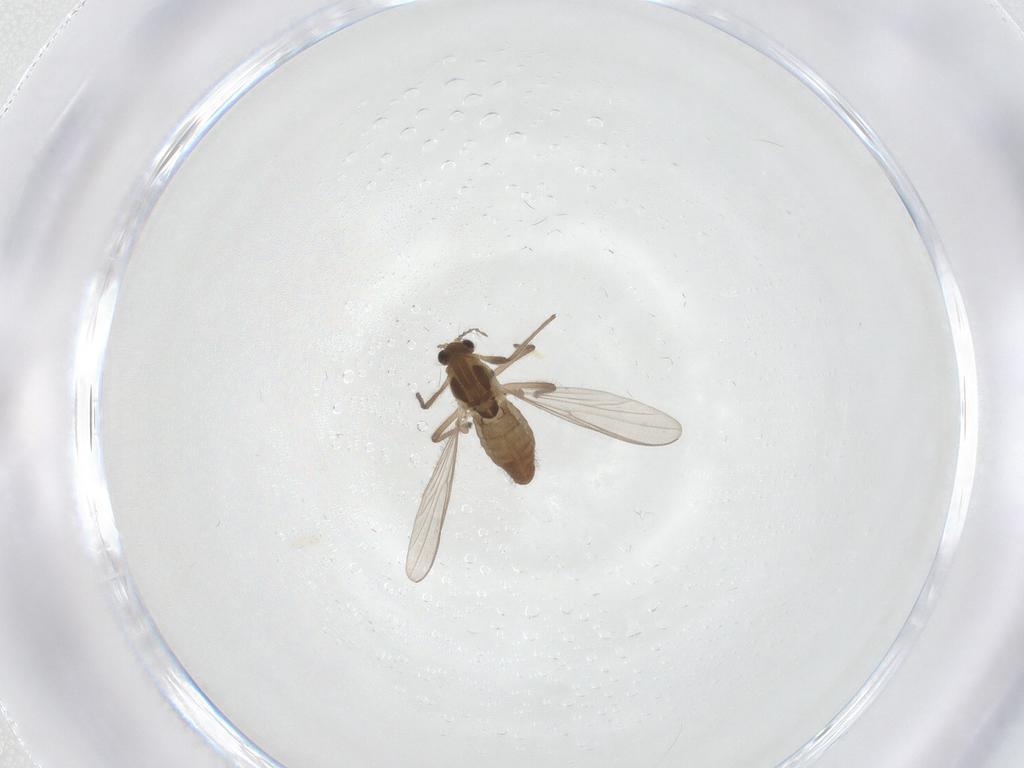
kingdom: Animalia
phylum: Arthropoda
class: Insecta
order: Diptera
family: Chironomidae
